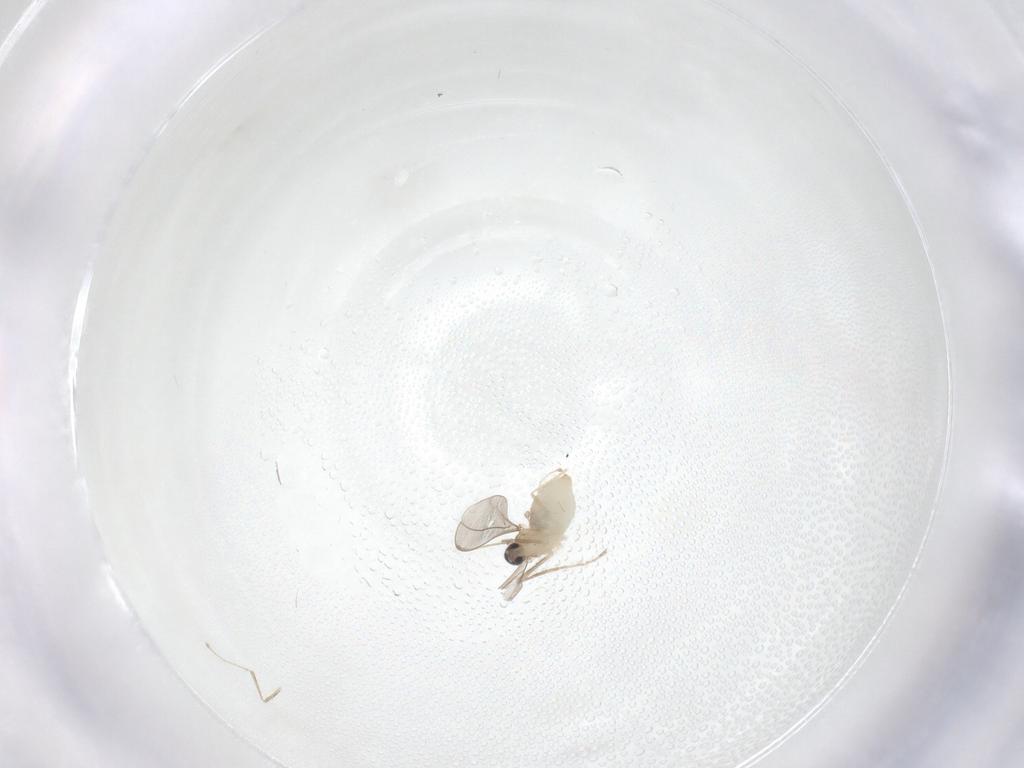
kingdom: Animalia
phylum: Arthropoda
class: Insecta
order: Diptera
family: Cecidomyiidae
